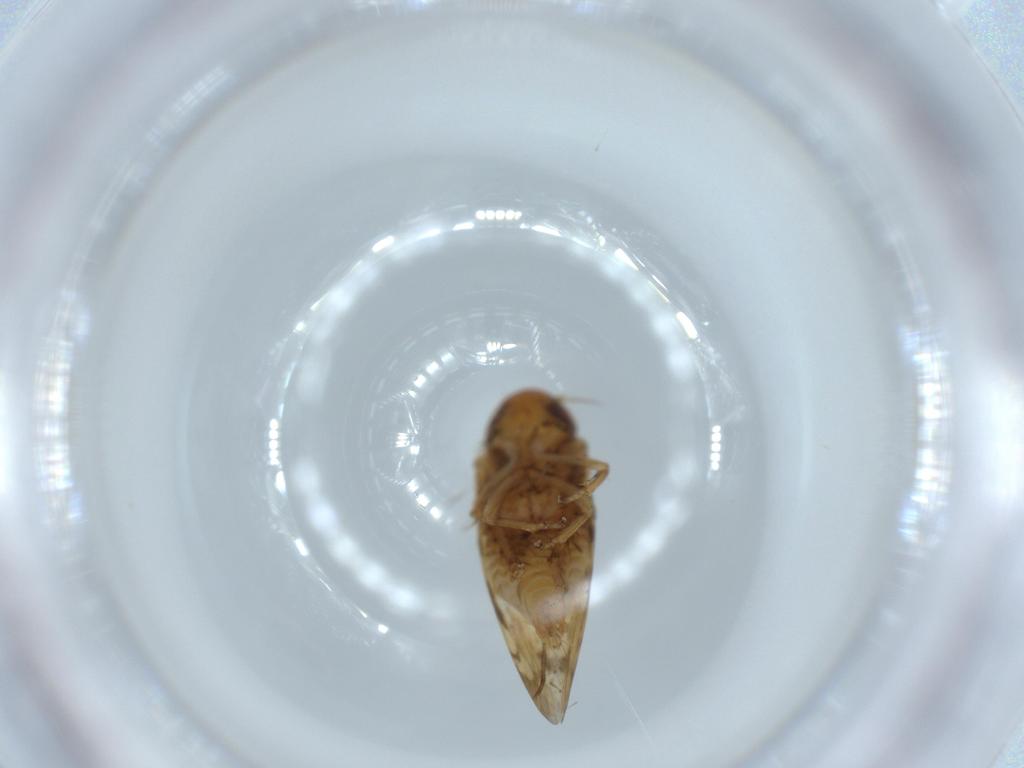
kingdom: Animalia
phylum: Arthropoda
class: Insecta
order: Hemiptera
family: Cicadellidae
